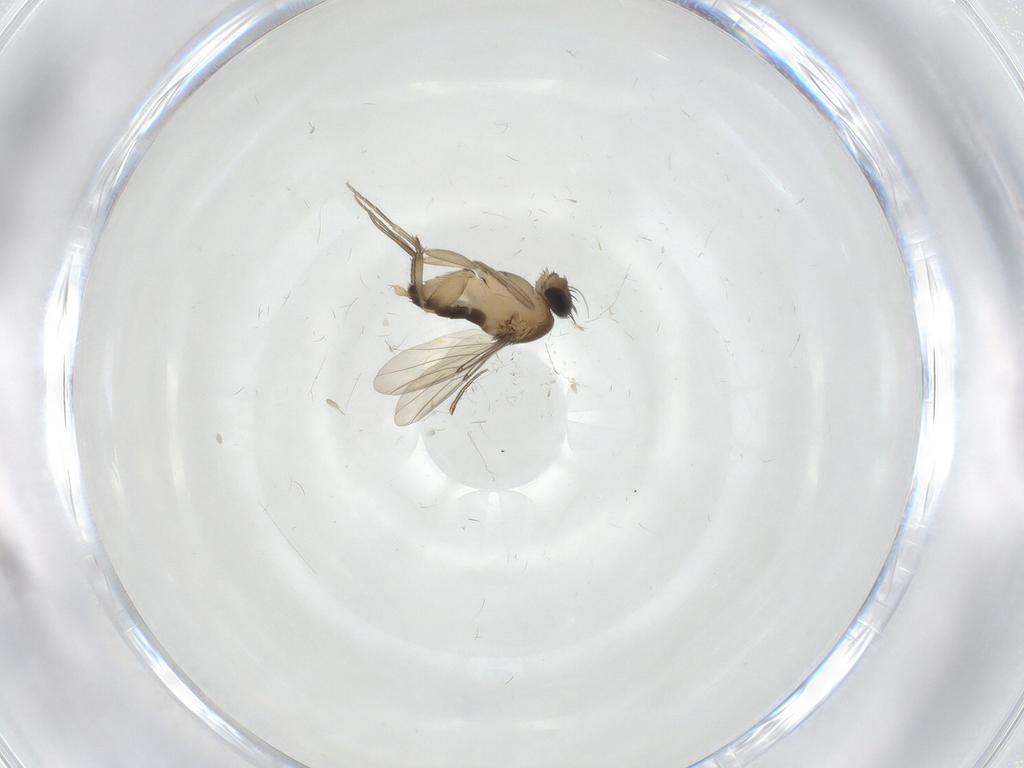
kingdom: Animalia
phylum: Arthropoda
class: Insecta
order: Diptera
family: Phoridae
